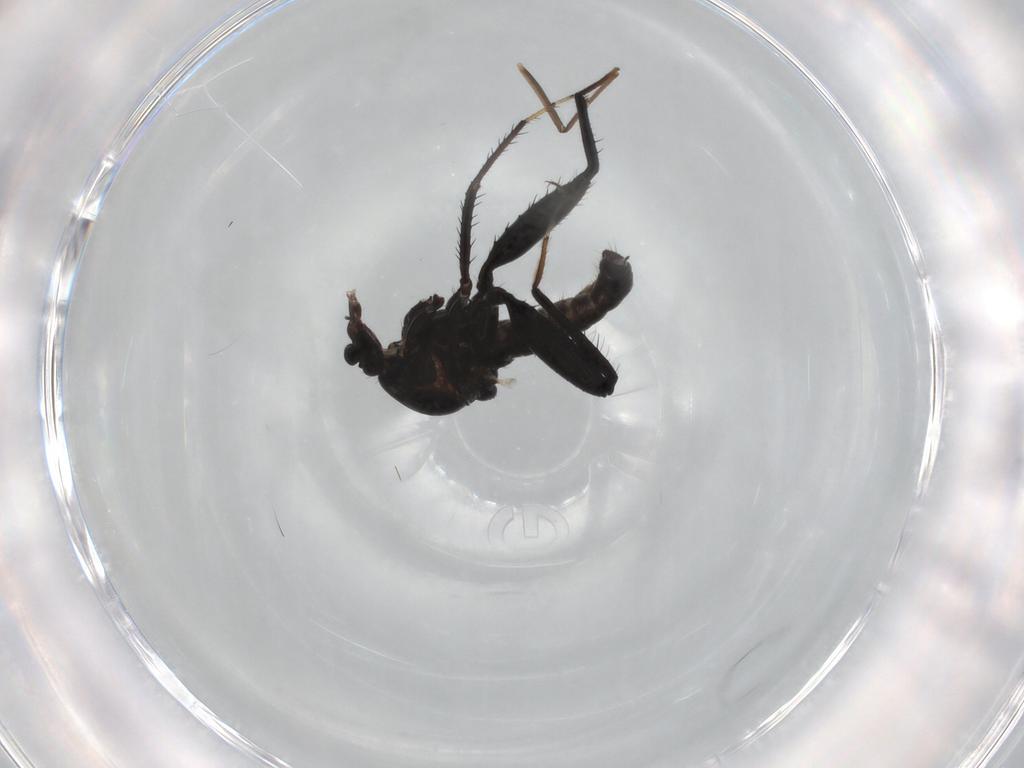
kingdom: Animalia
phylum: Arthropoda
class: Insecta
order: Diptera
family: Ceratopogonidae
